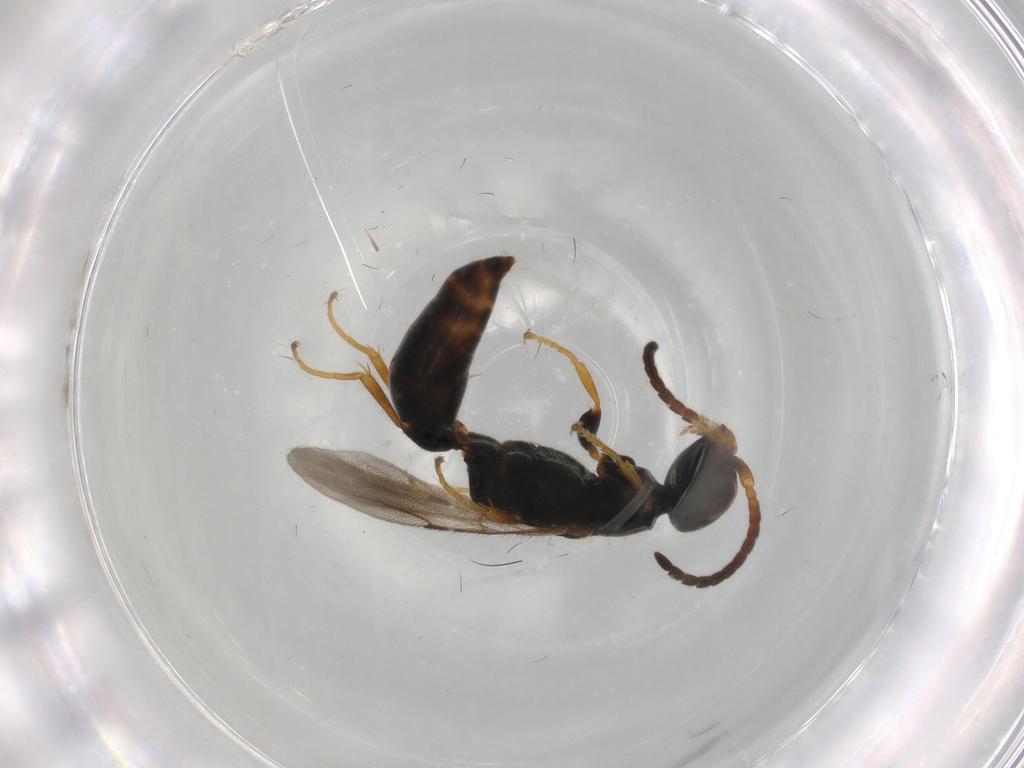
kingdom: Animalia
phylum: Arthropoda
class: Insecta
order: Hymenoptera
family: Bethylidae
